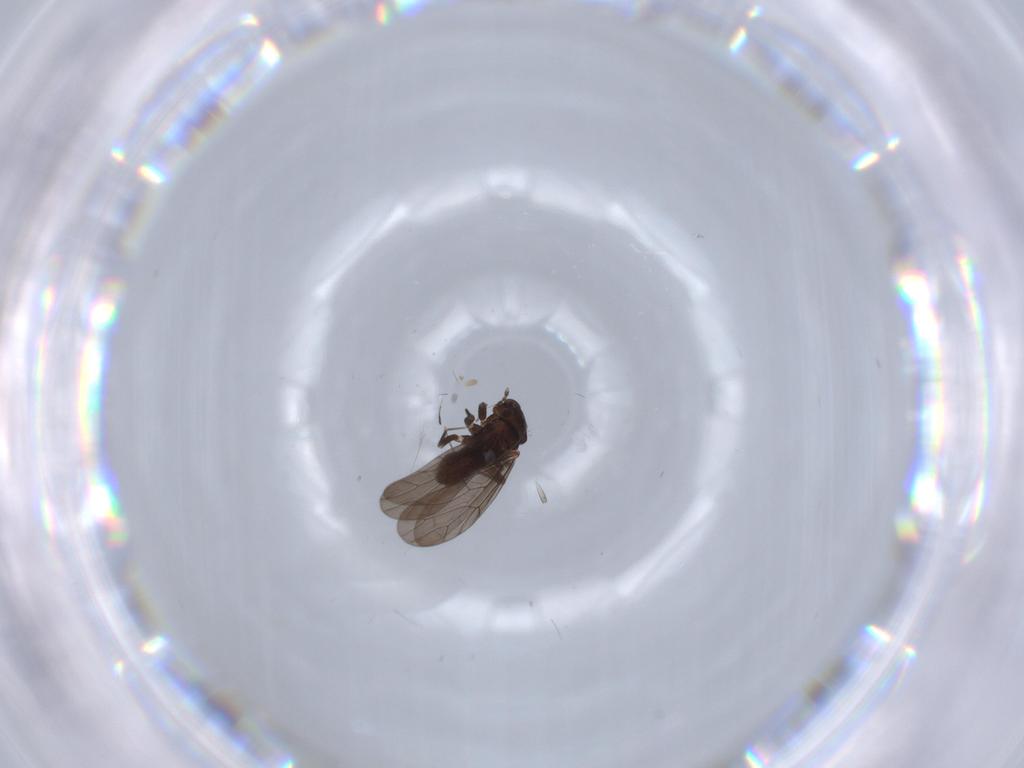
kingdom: Animalia
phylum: Arthropoda
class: Insecta
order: Psocodea
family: Lepidopsocidae
